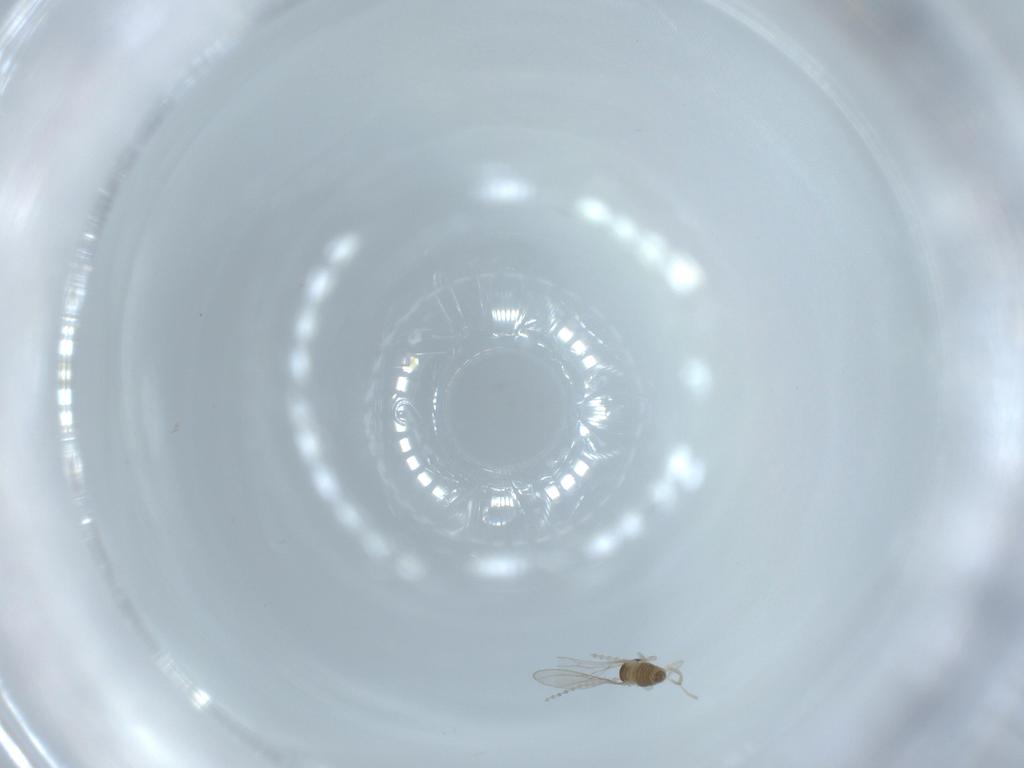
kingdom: Animalia
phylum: Arthropoda
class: Insecta
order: Diptera
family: Cecidomyiidae
